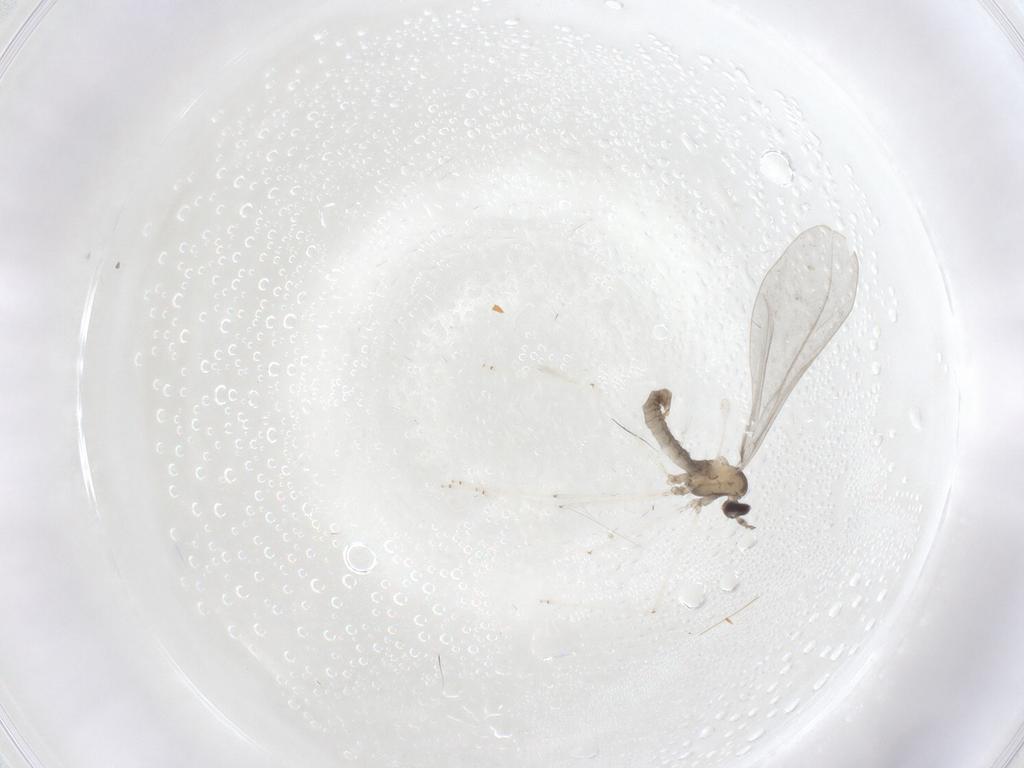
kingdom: Animalia
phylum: Arthropoda
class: Insecta
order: Diptera
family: Cecidomyiidae
